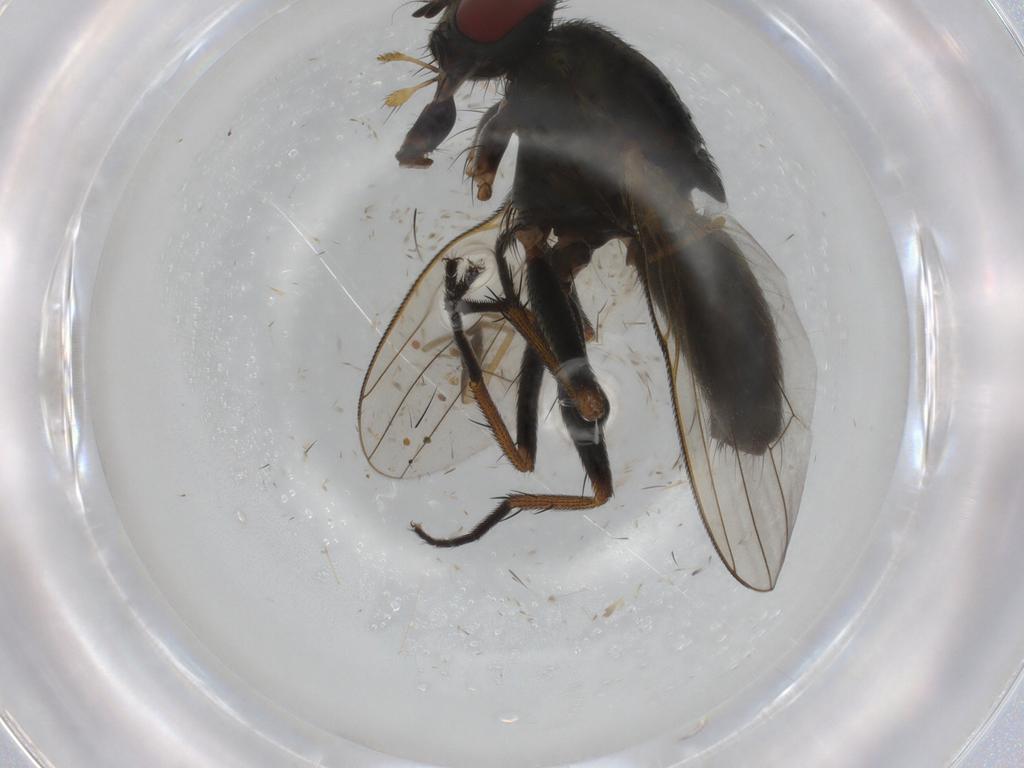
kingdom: Animalia
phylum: Arthropoda
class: Insecta
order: Diptera
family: Muscidae
